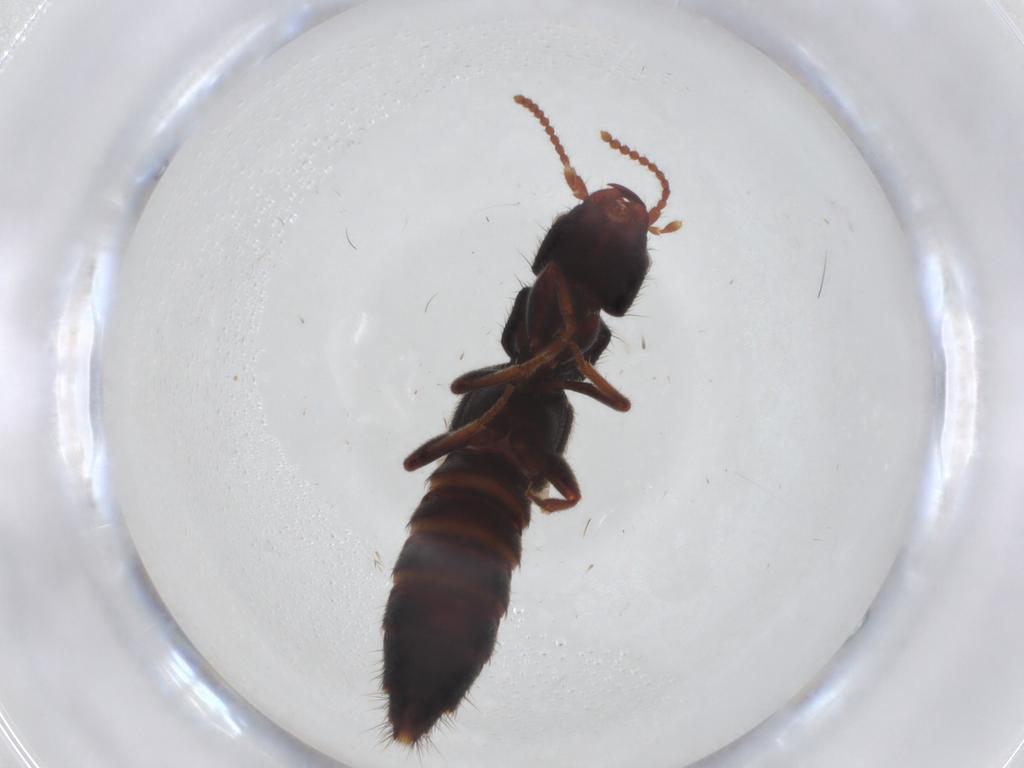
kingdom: Animalia
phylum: Arthropoda
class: Insecta
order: Coleoptera
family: Staphylinidae
